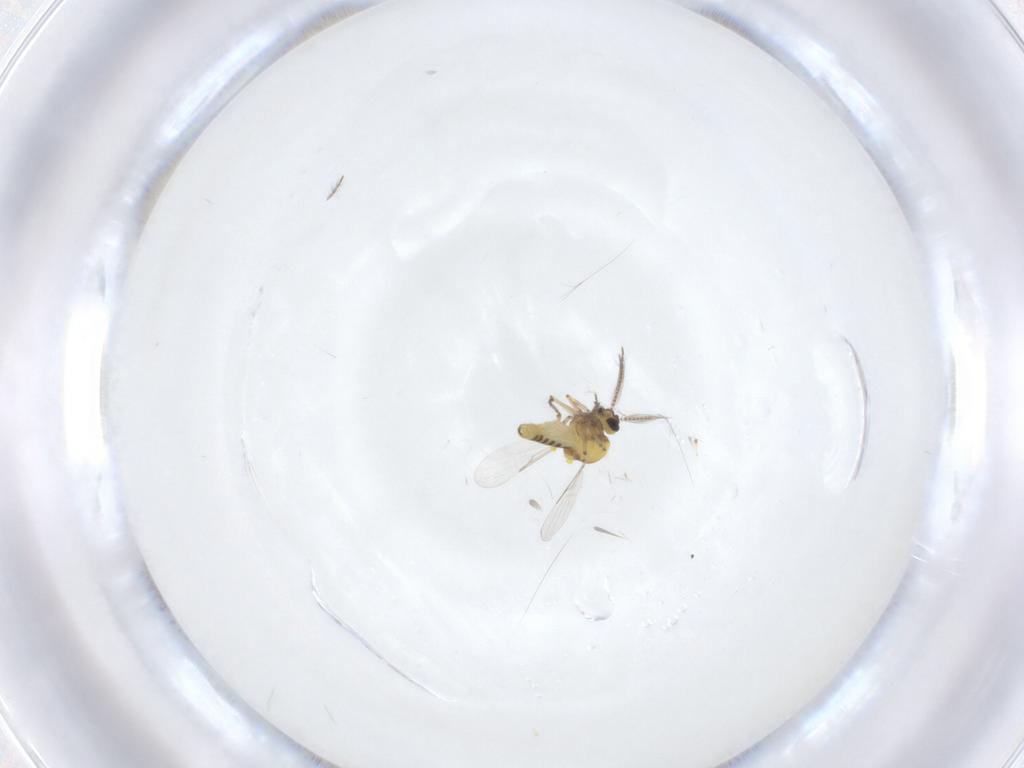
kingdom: Animalia
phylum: Arthropoda
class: Insecta
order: Diptera
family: Ceratopogonidae
